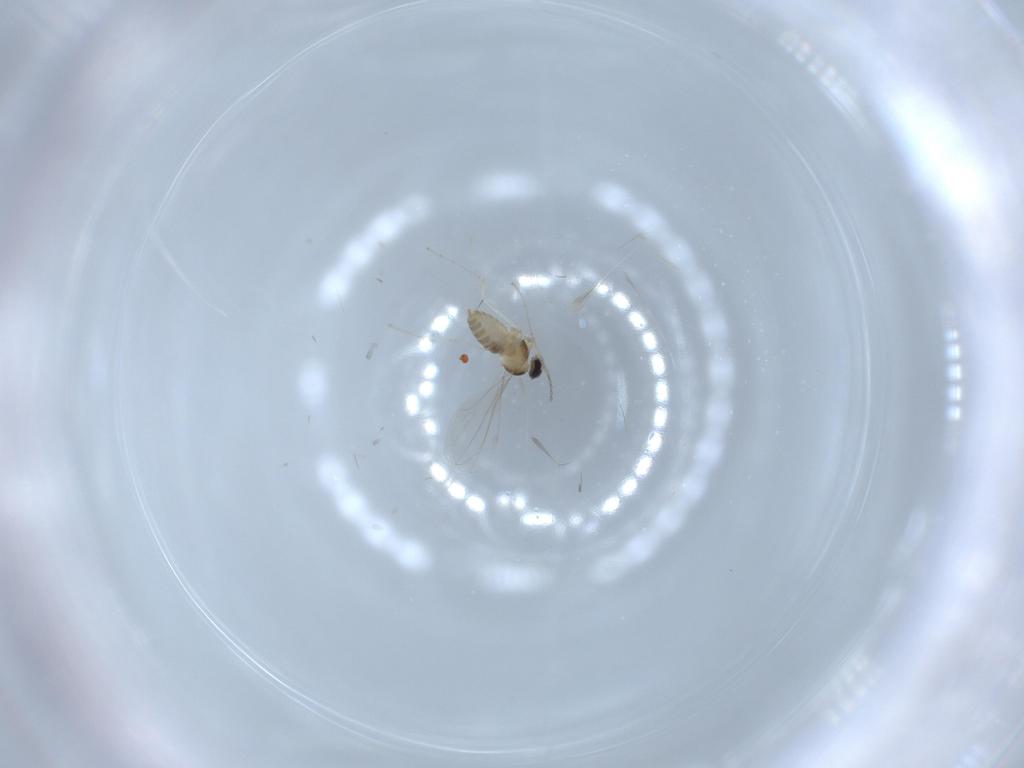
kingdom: Animalia
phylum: Arthropoda
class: Insecta
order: Diptera
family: Cecidomyiidae
